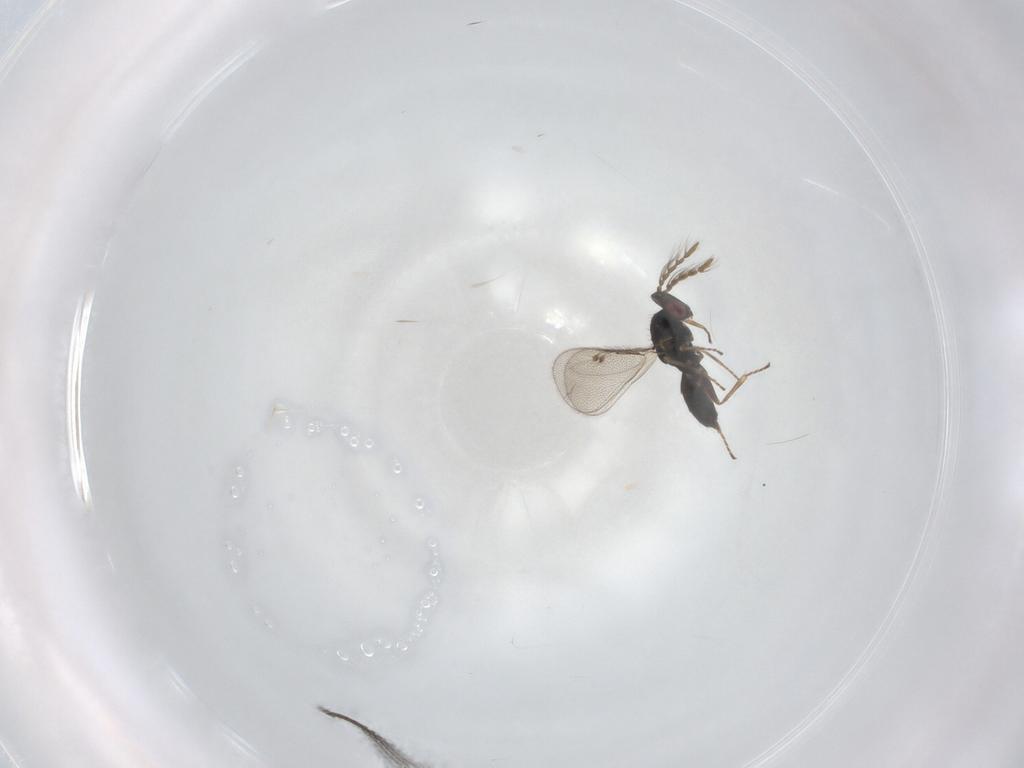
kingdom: Animalia
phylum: Arthropoda
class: Insecta
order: Hymenoptera
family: Eulophidae
